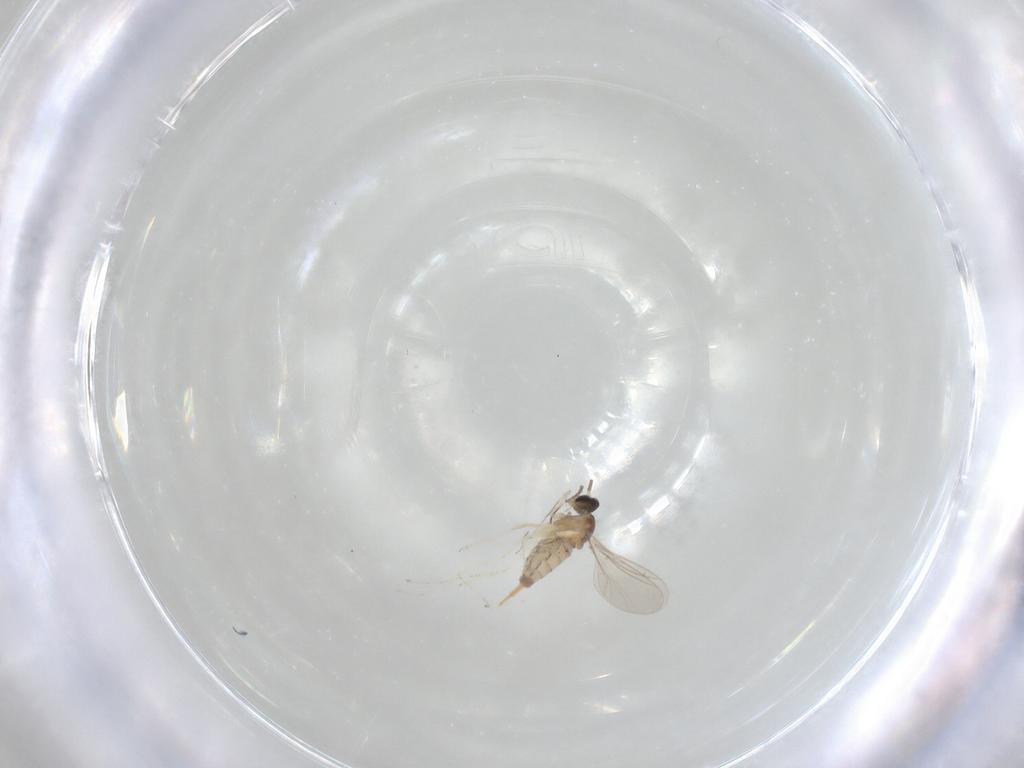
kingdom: Animalia
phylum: Arthropoda
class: Insecta
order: Diptera
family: Cecidomyiidae
